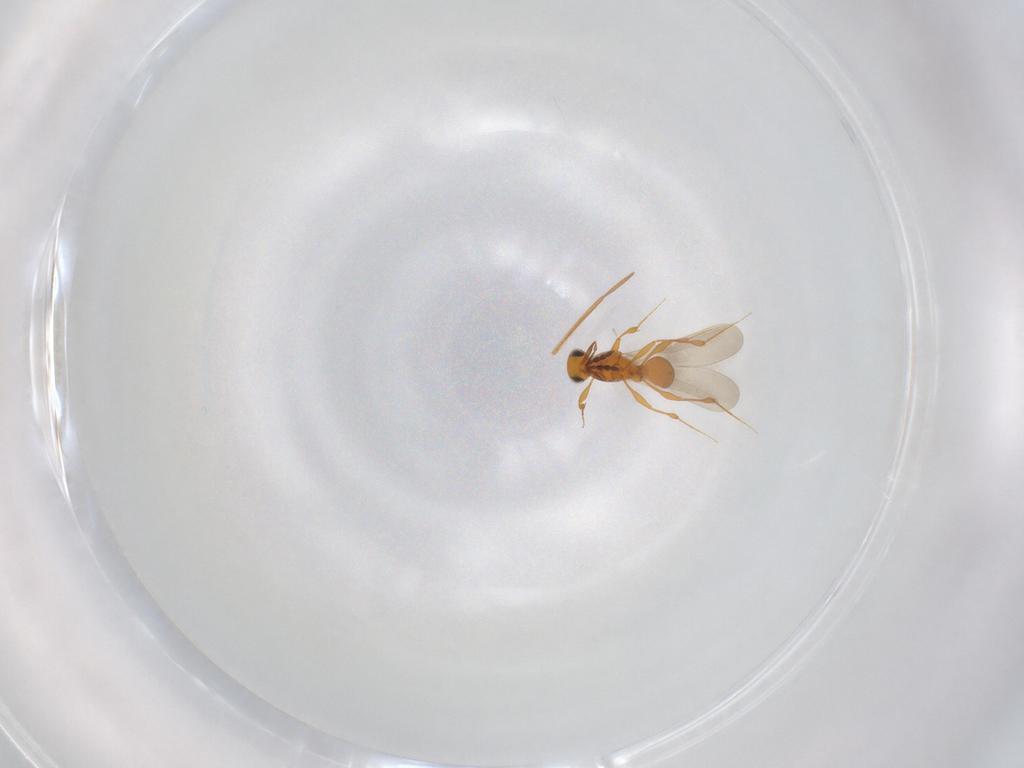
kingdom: Animalia
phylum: Arthropoda
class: Insecta
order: Hymenoptera
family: Platygastridae
